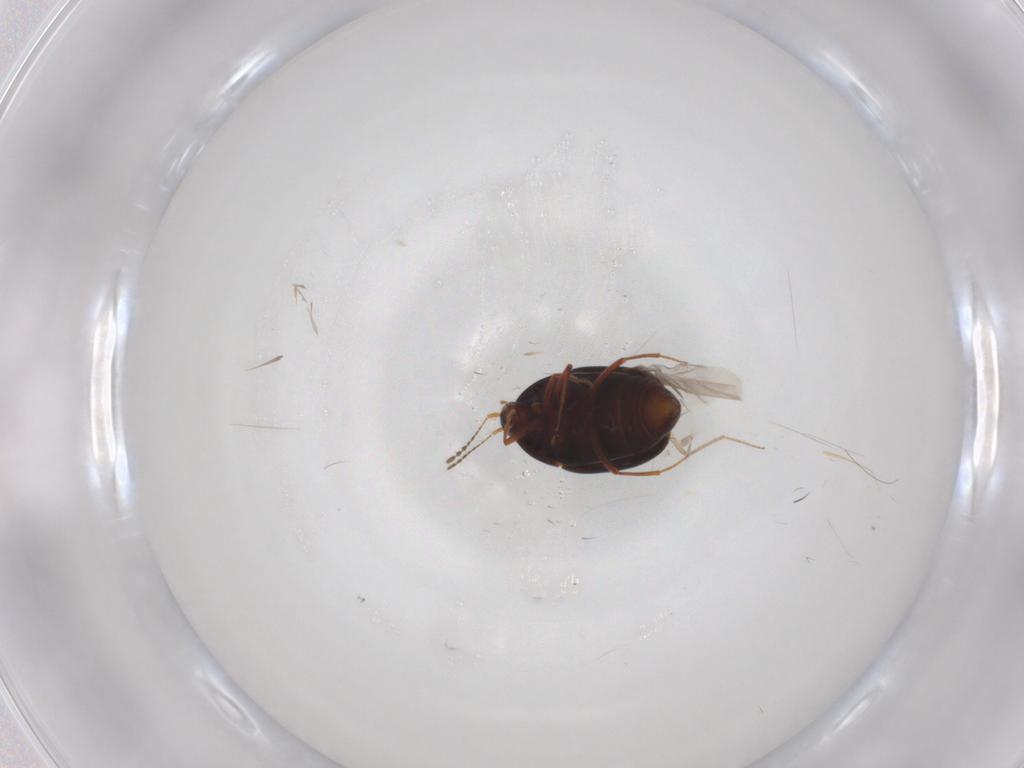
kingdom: Animalia
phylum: Arthropoda
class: Insecta
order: Coleoptera
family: Staphylinidae
